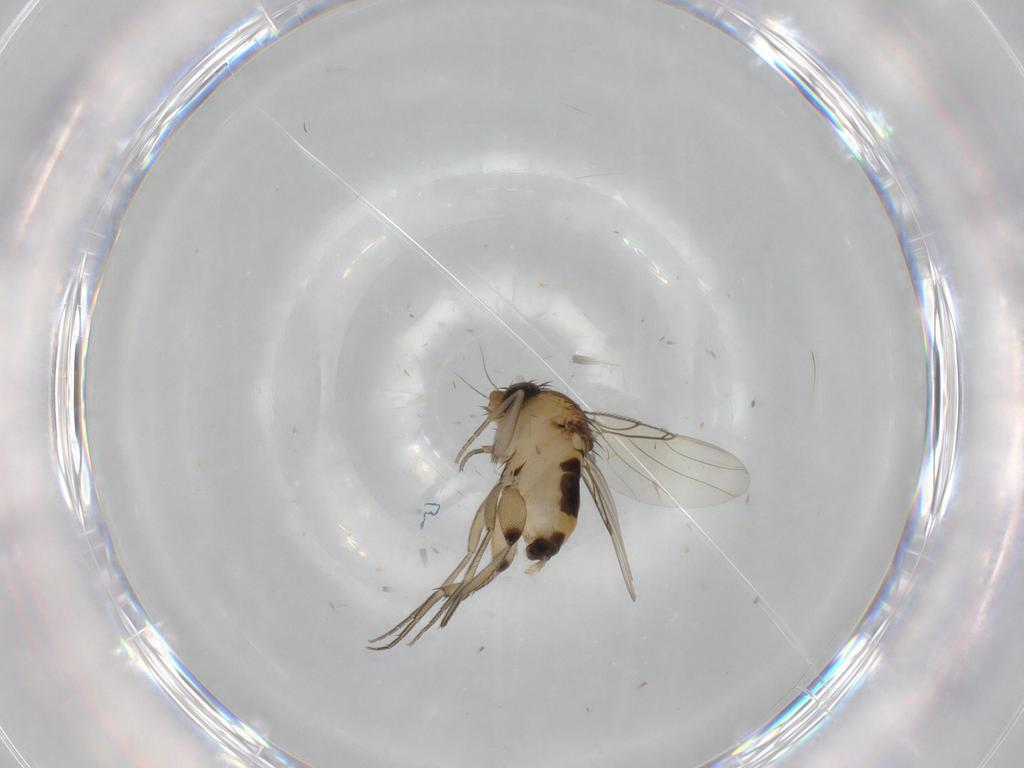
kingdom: Animalia
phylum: Arthropoda
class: Insecta
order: Diptera
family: Phoridae
